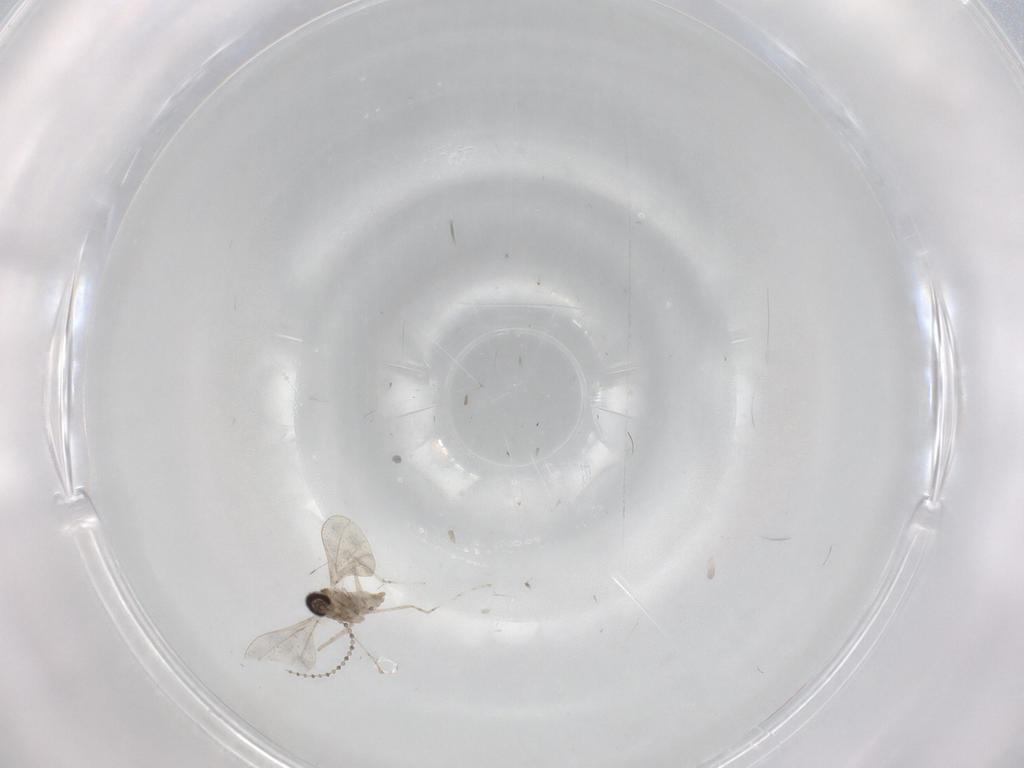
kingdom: Animalia
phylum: Arthropoda
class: Insecta
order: Diptera
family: Cecidomyiidae
